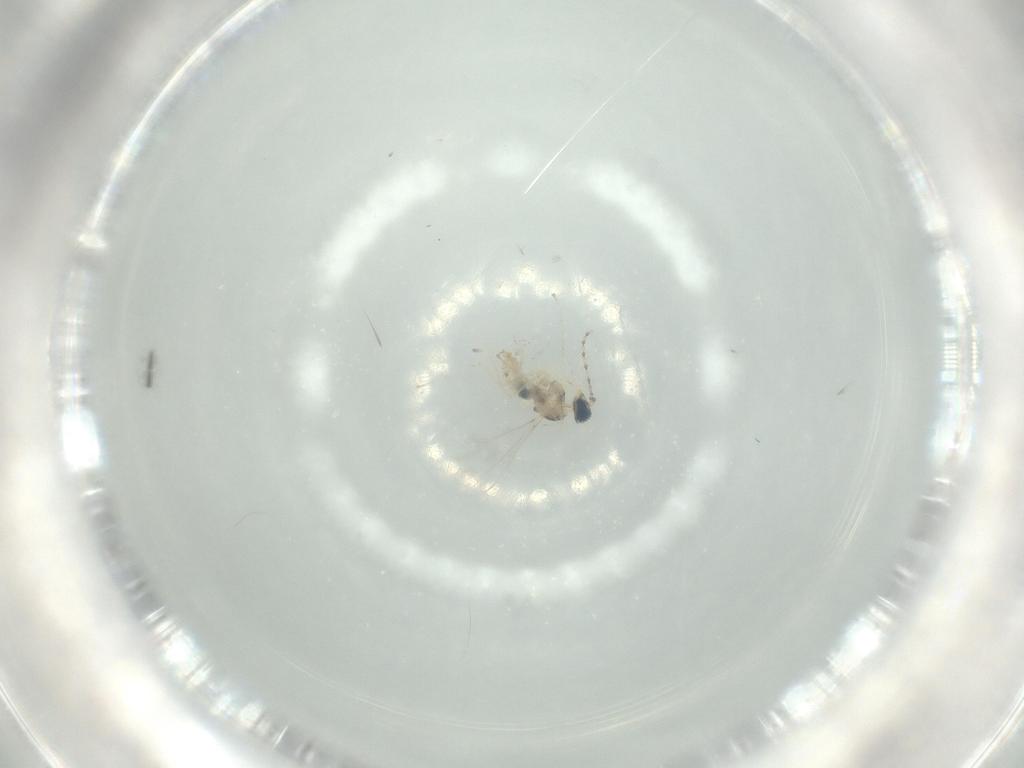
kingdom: Animalia
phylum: Arthropoda
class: Insecta
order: Diptera
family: Cecidomyiidae
